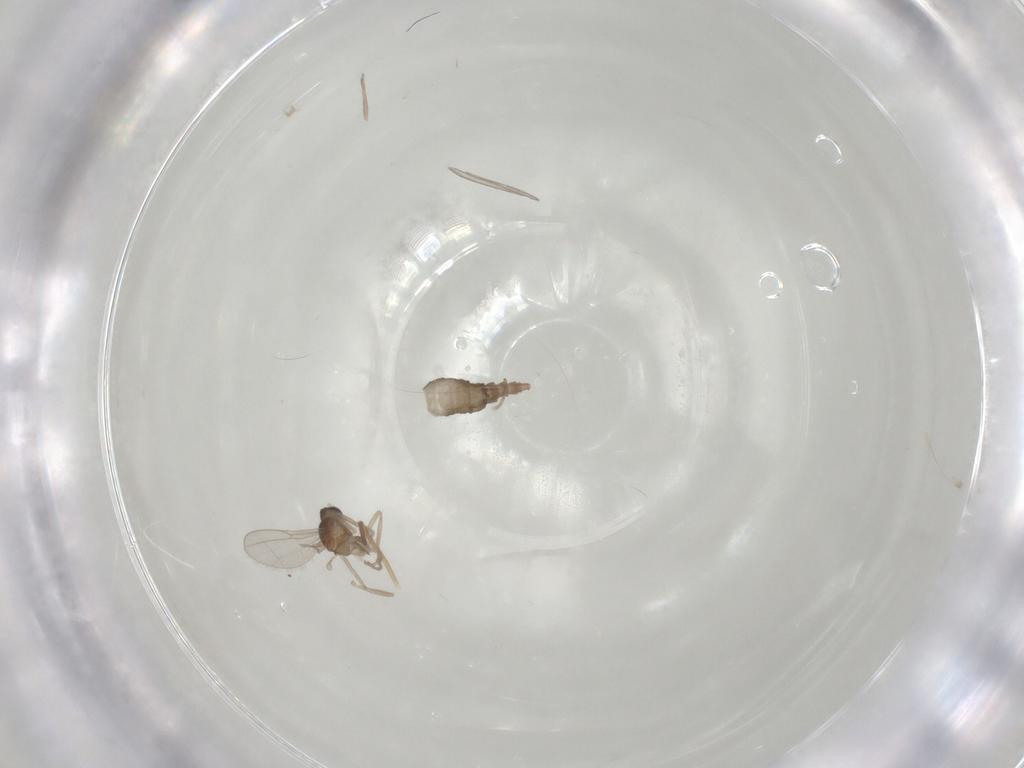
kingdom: Animalia
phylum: Arthropoda
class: Insecta
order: Diptera
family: Cecidomyiidae
